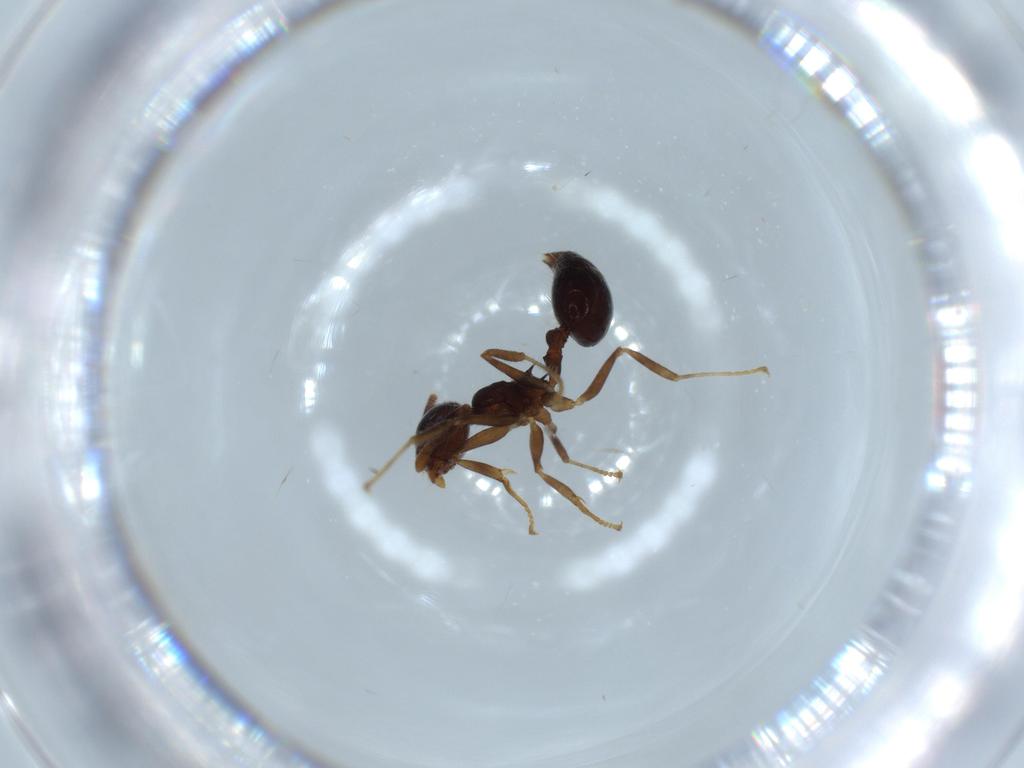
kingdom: Animalia
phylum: Arthropoda
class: Insecta
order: Hymenoptera
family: Formicidae
